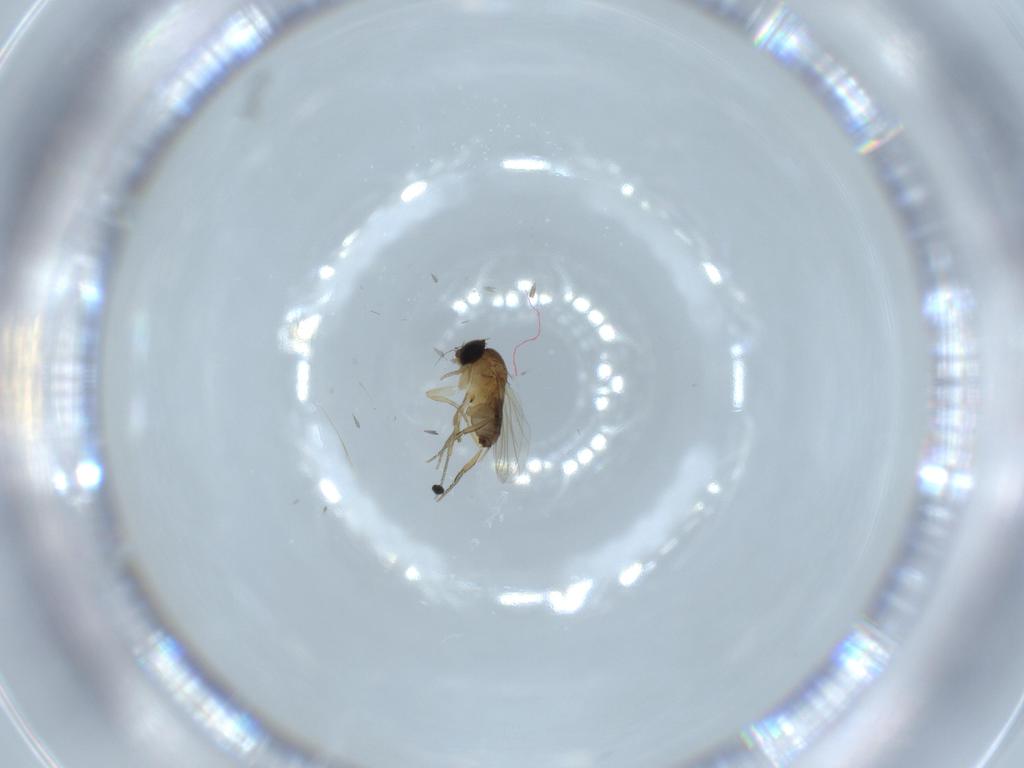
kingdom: Animalia
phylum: Arthropoda
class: Insecta
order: Diptera
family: Phoridae
